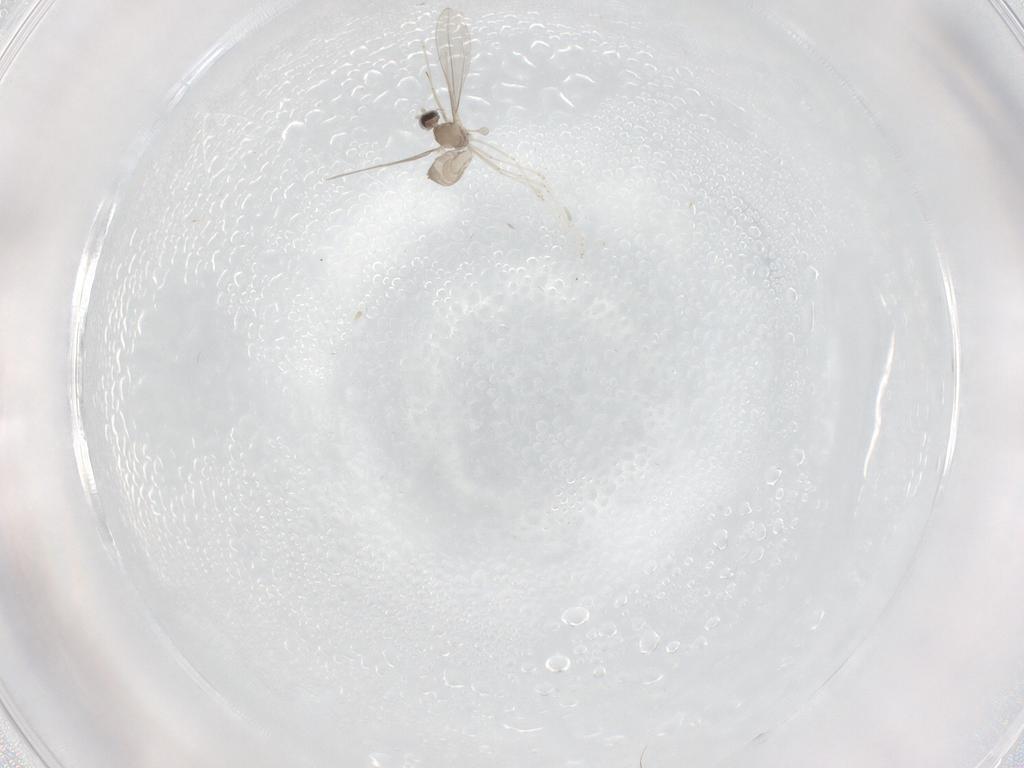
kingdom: Animalia
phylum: Arthropoda
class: Insecta
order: Diptera
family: Cecidomyiidae
